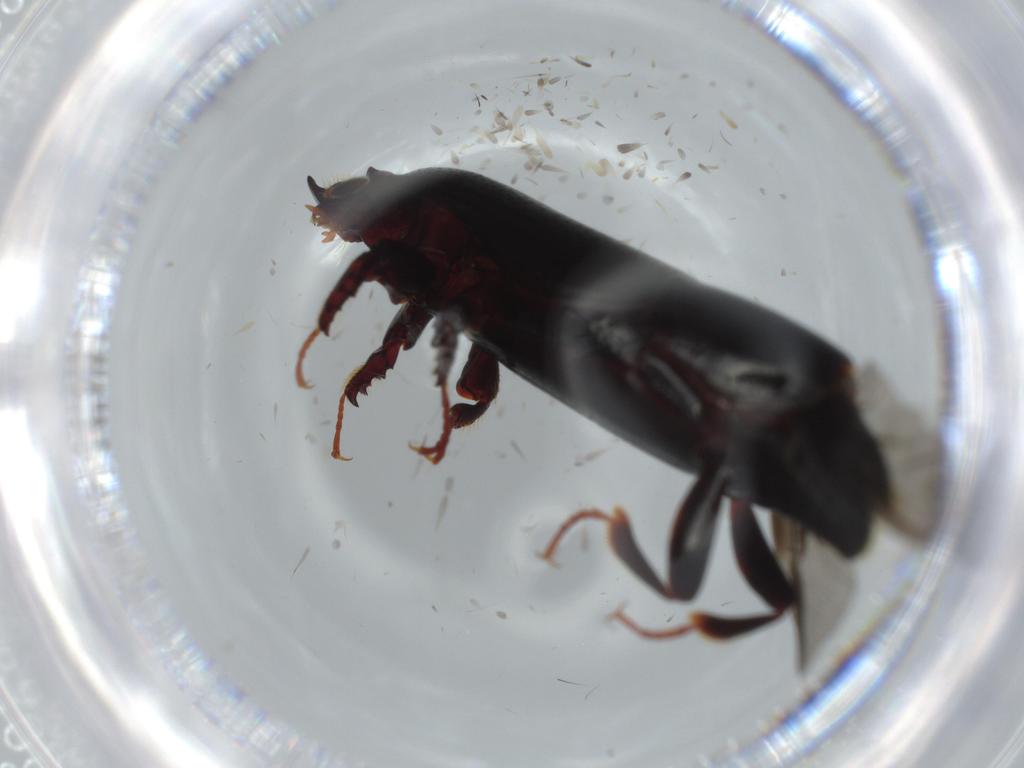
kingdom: Animalia
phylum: Arthropoda
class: Insecta
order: Coleoptera
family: Histeridae
